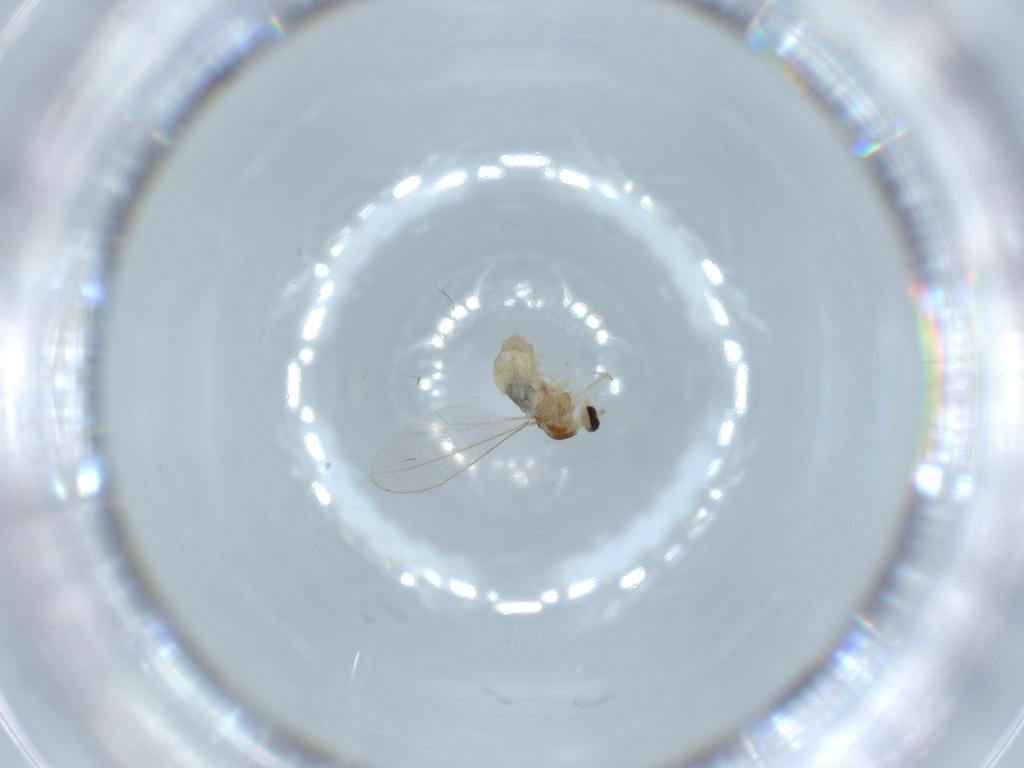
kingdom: Animalia
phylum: Arthropoda
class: Insecta
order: Diptera
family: Cecidomyiidae
